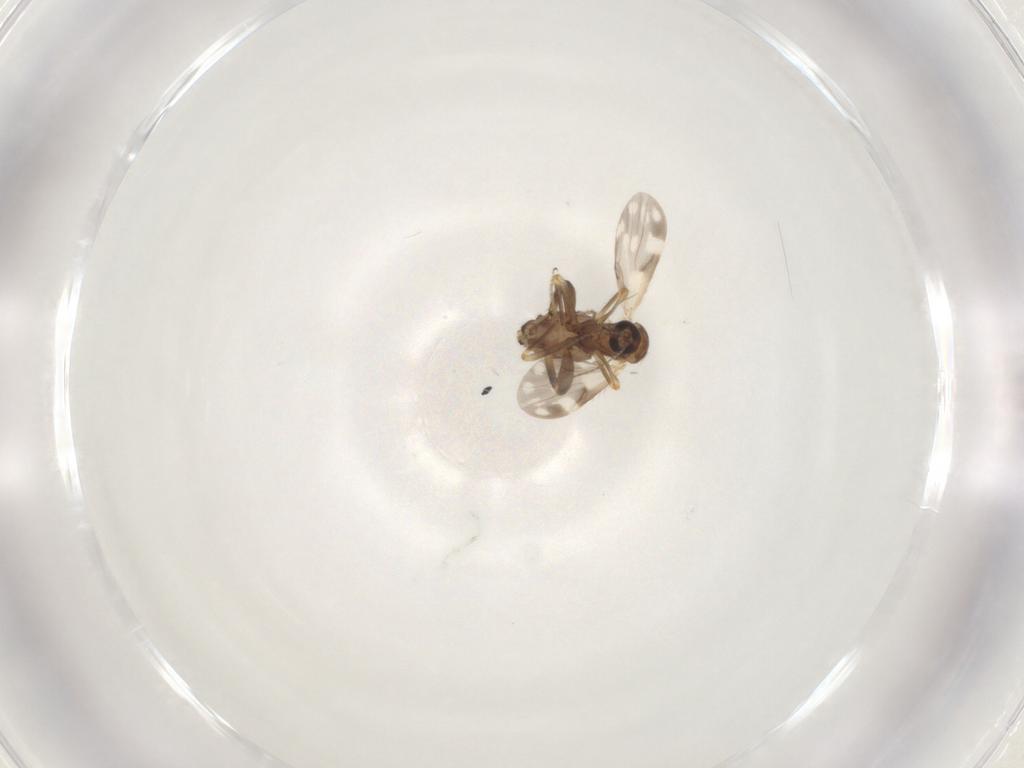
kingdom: Animalia
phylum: Arthropoda
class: Insecta
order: Diptera
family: Ceratopogonidae
